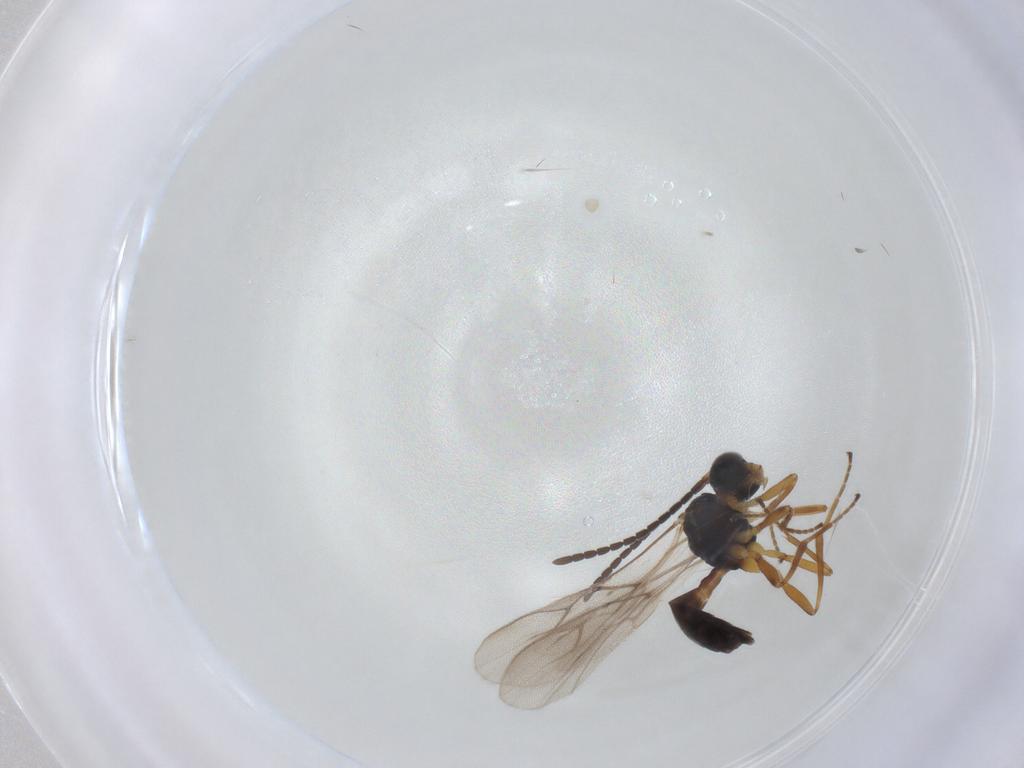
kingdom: Animalia
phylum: Arthropoda
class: Insecta
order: Hymenoptera
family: Braconidae
